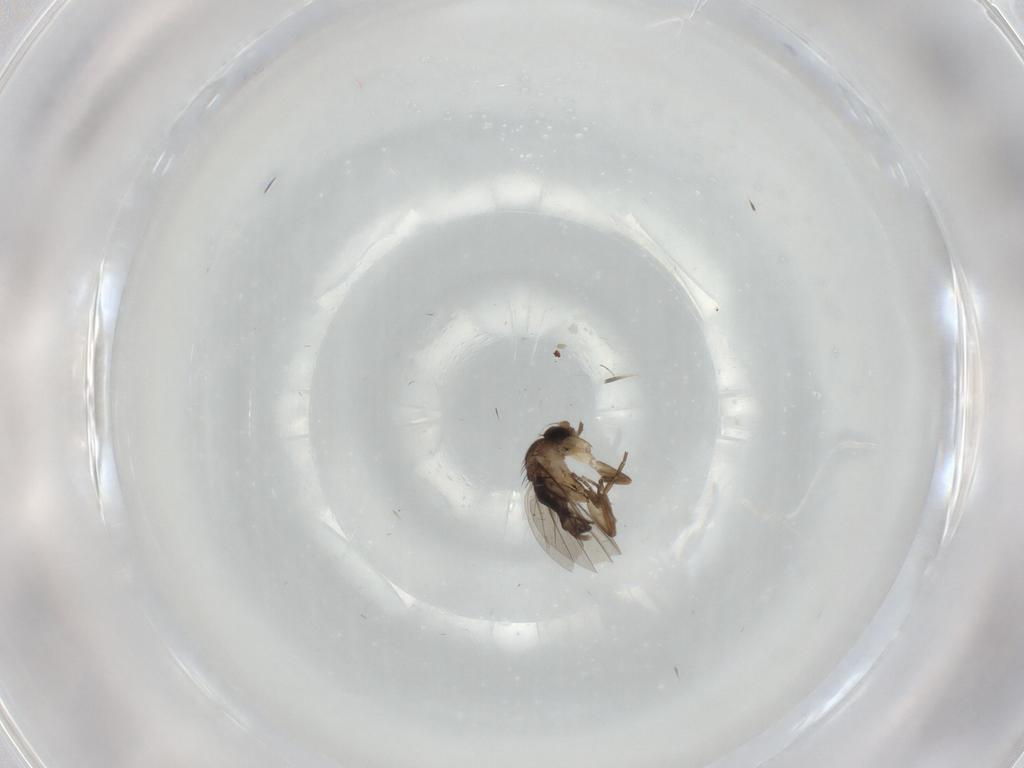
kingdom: Animalia
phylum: Arthropoda
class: Insecta
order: Diptera
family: Phoridae
